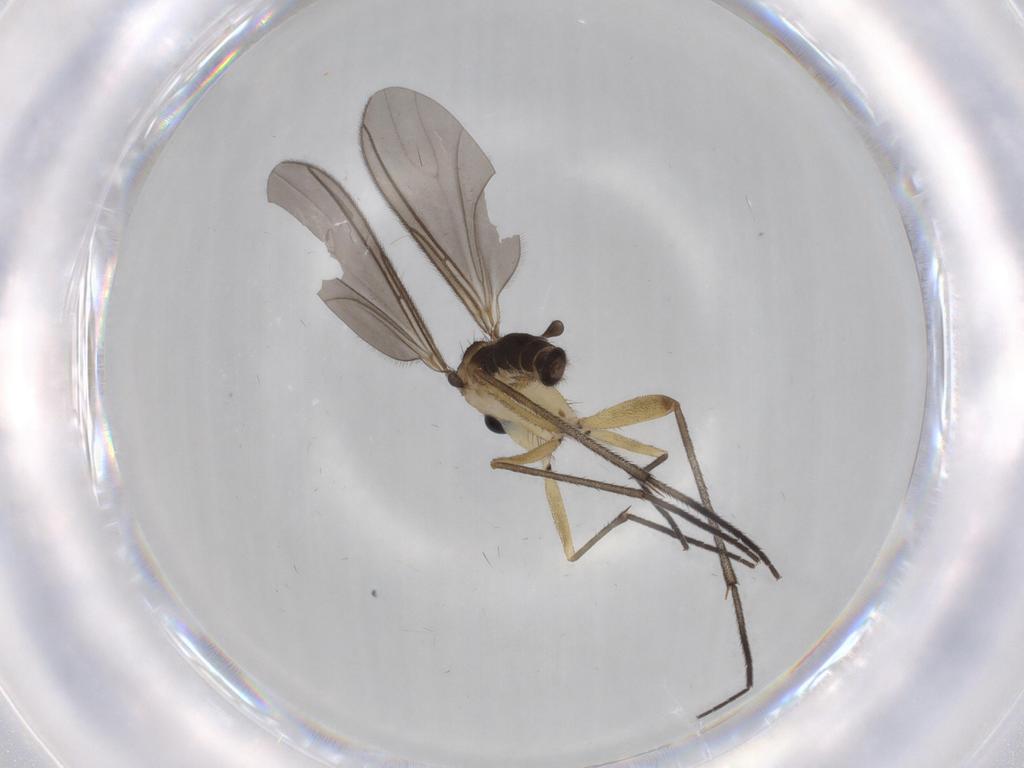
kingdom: Animalia
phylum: Arthropoda
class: Insecta
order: Diptera
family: Sciaridae
